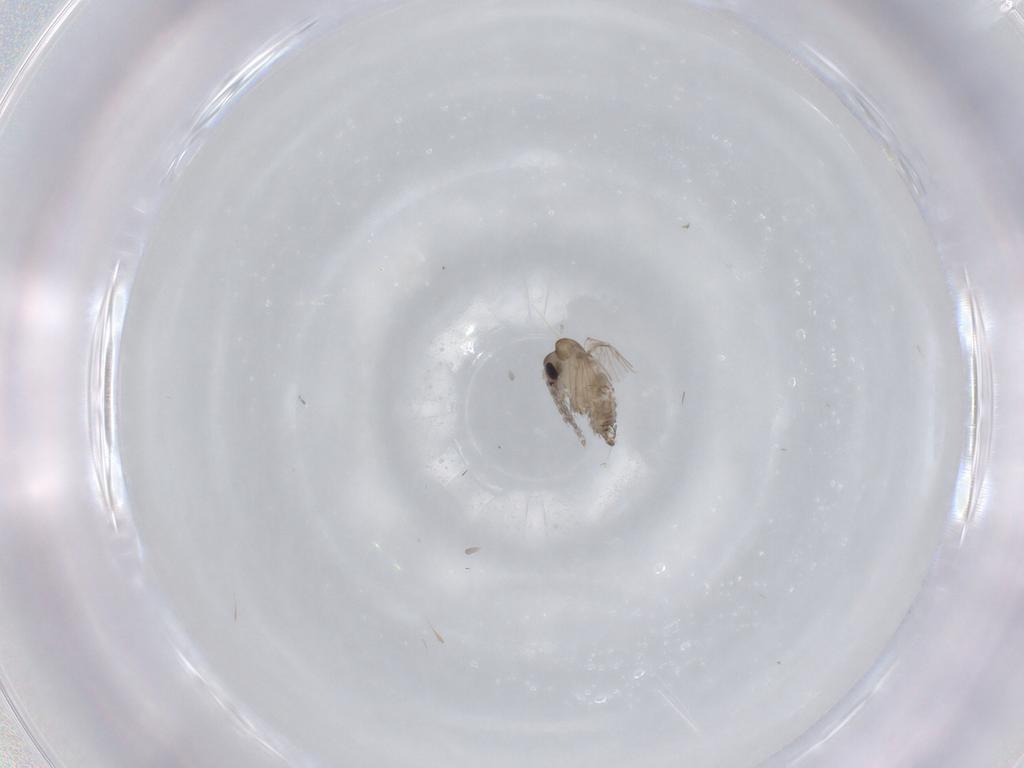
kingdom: Animalia
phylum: Arthropoda
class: Insecta
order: Diptera
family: Psychodidae
